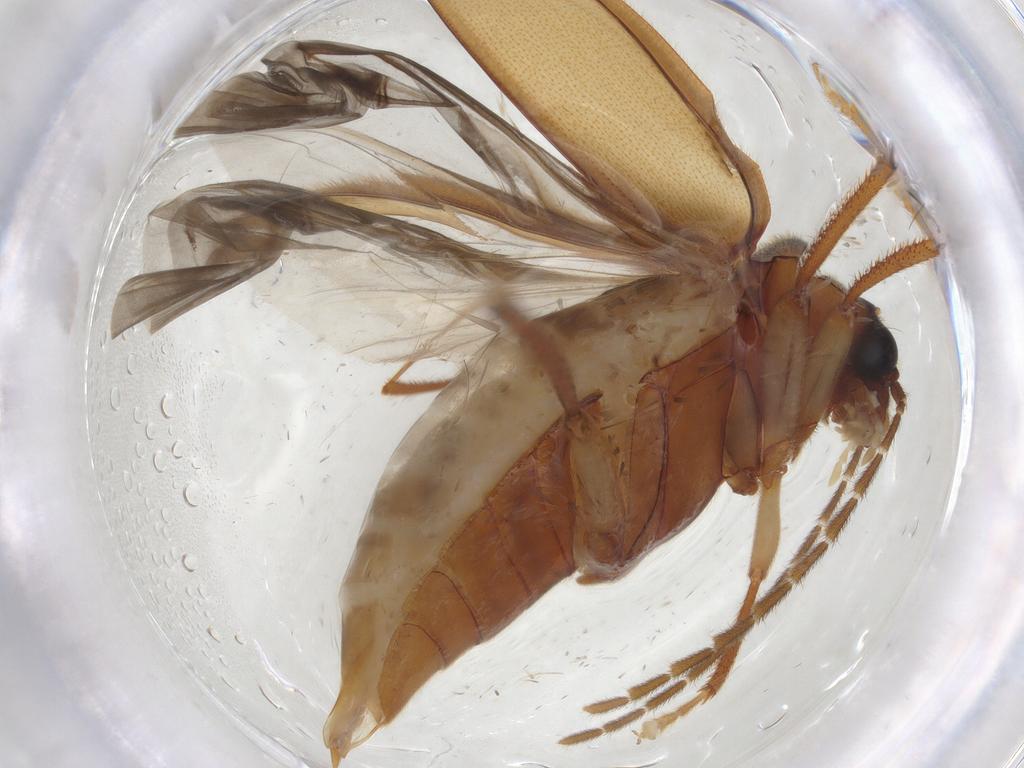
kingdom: Animalia
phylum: Arthropoda
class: Insecta
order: Coleoptera
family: Ptilodactylidae
